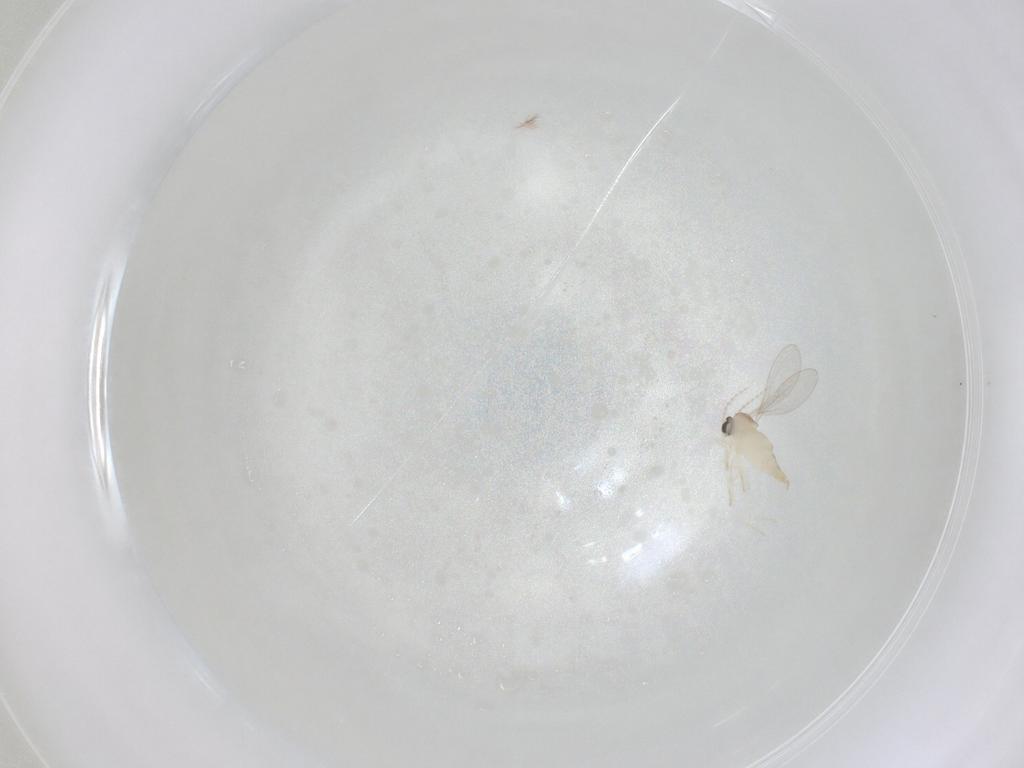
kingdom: Animalia
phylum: Arthropoda
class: Insecta
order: Diptera
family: Cecidomyiidae
